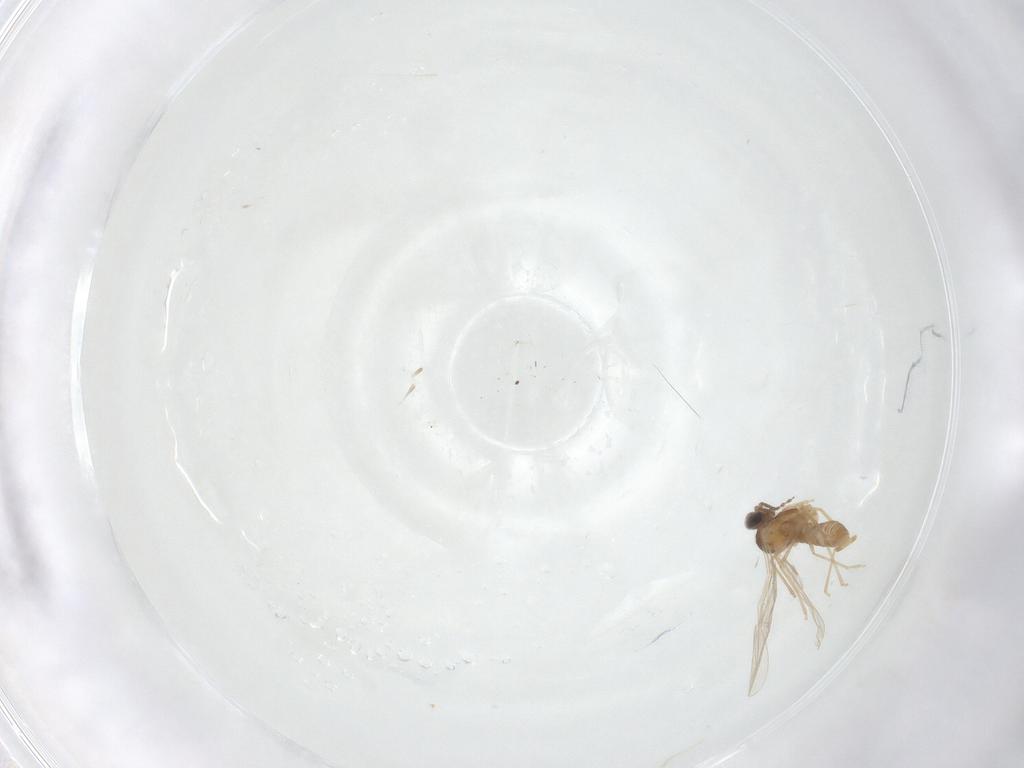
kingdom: Animalia
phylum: Arthropoda
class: Insecta
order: Diptera
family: Cecidomyiidae
